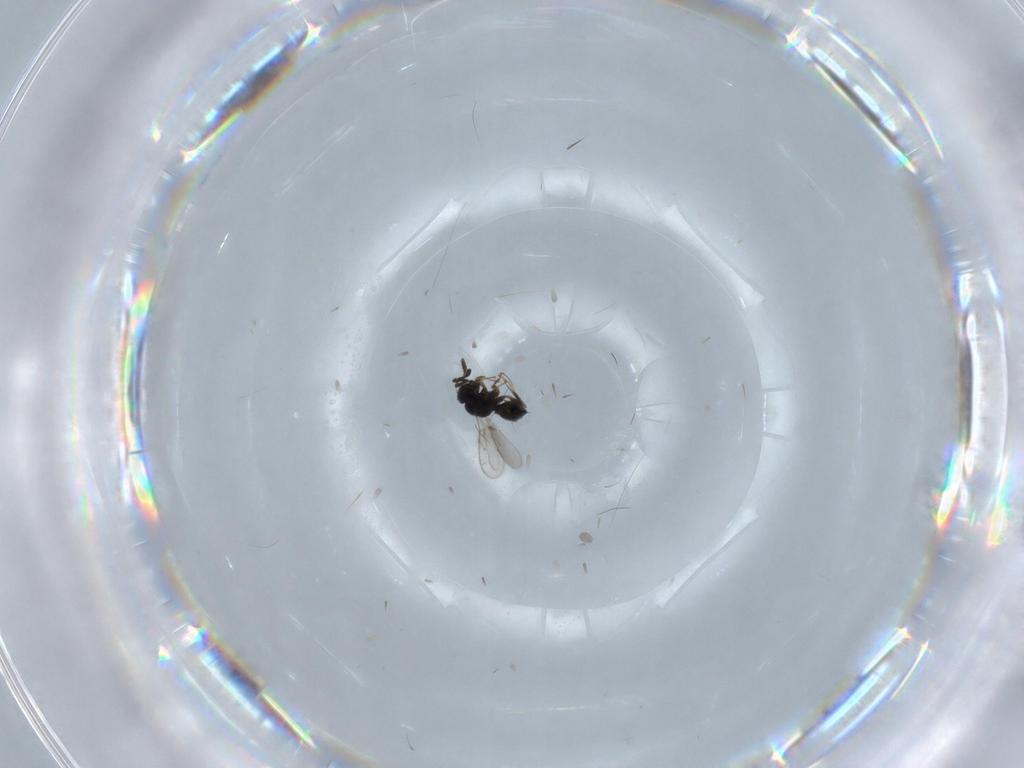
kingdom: Animalia
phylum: Arthropoda
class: Insecta
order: Hymenoptera
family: Scelionidae
